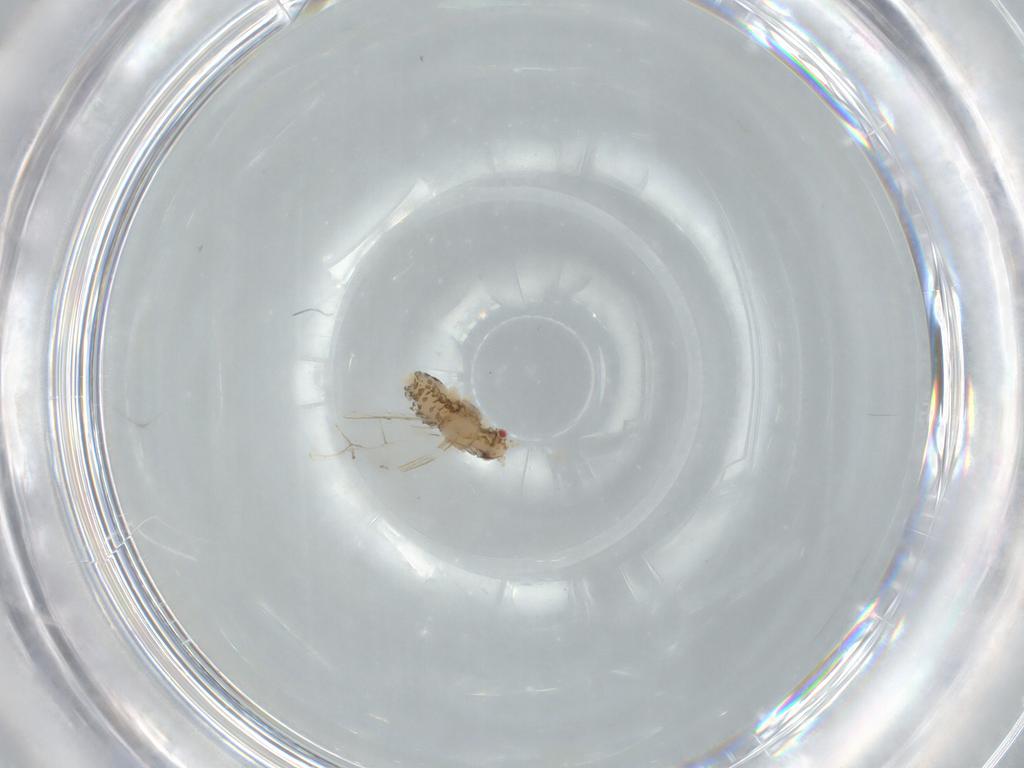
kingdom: Animalia
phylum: Arthropoda
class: Insecta
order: Hemiptera
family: Aphididae
